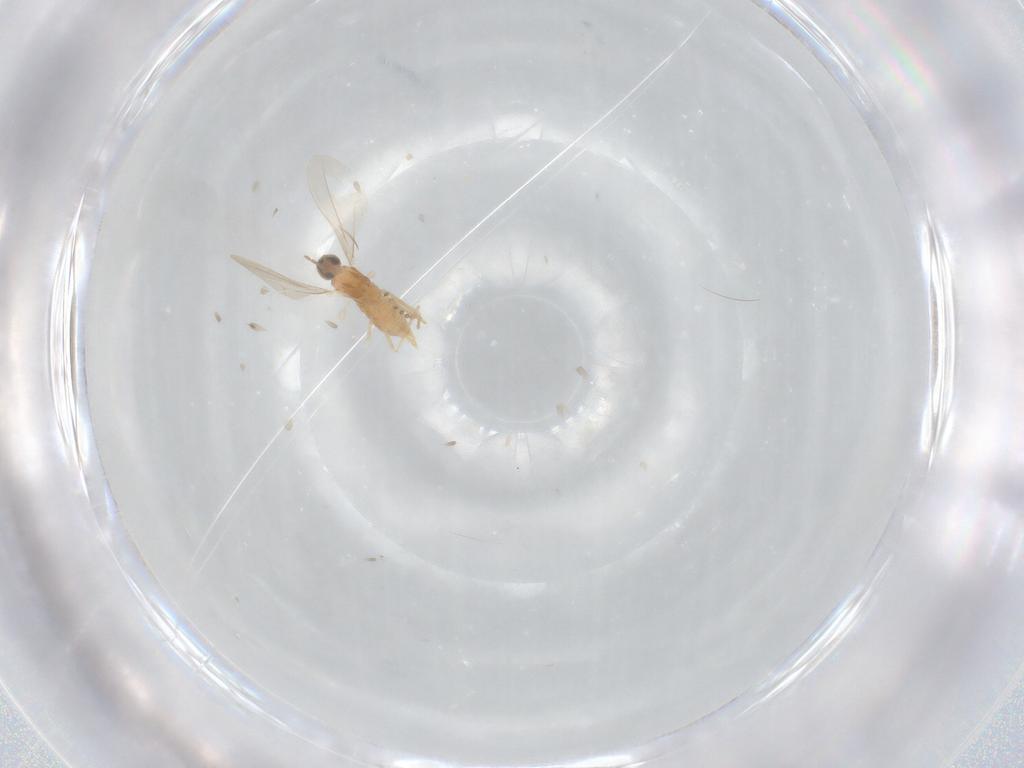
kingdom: Animalia
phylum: Arthropoda
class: Insecta
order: Diptera
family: Cecidomyiidae
